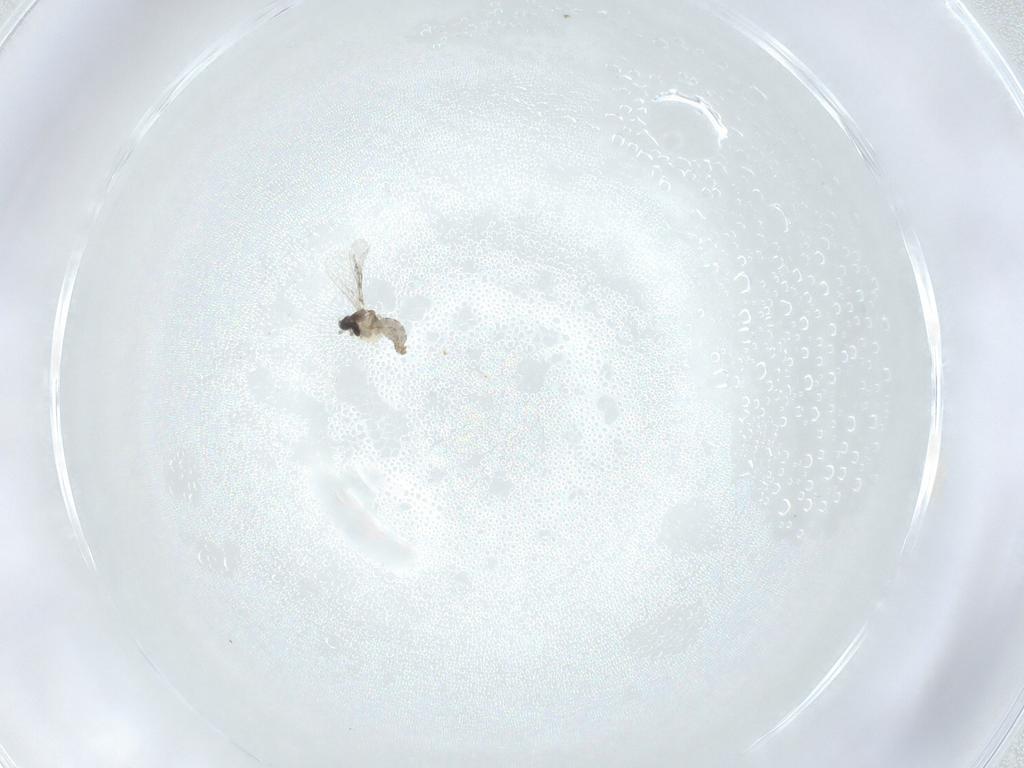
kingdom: Animalia
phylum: Arthropoda
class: Insecta
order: Diptera
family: Cecidomyiidae
